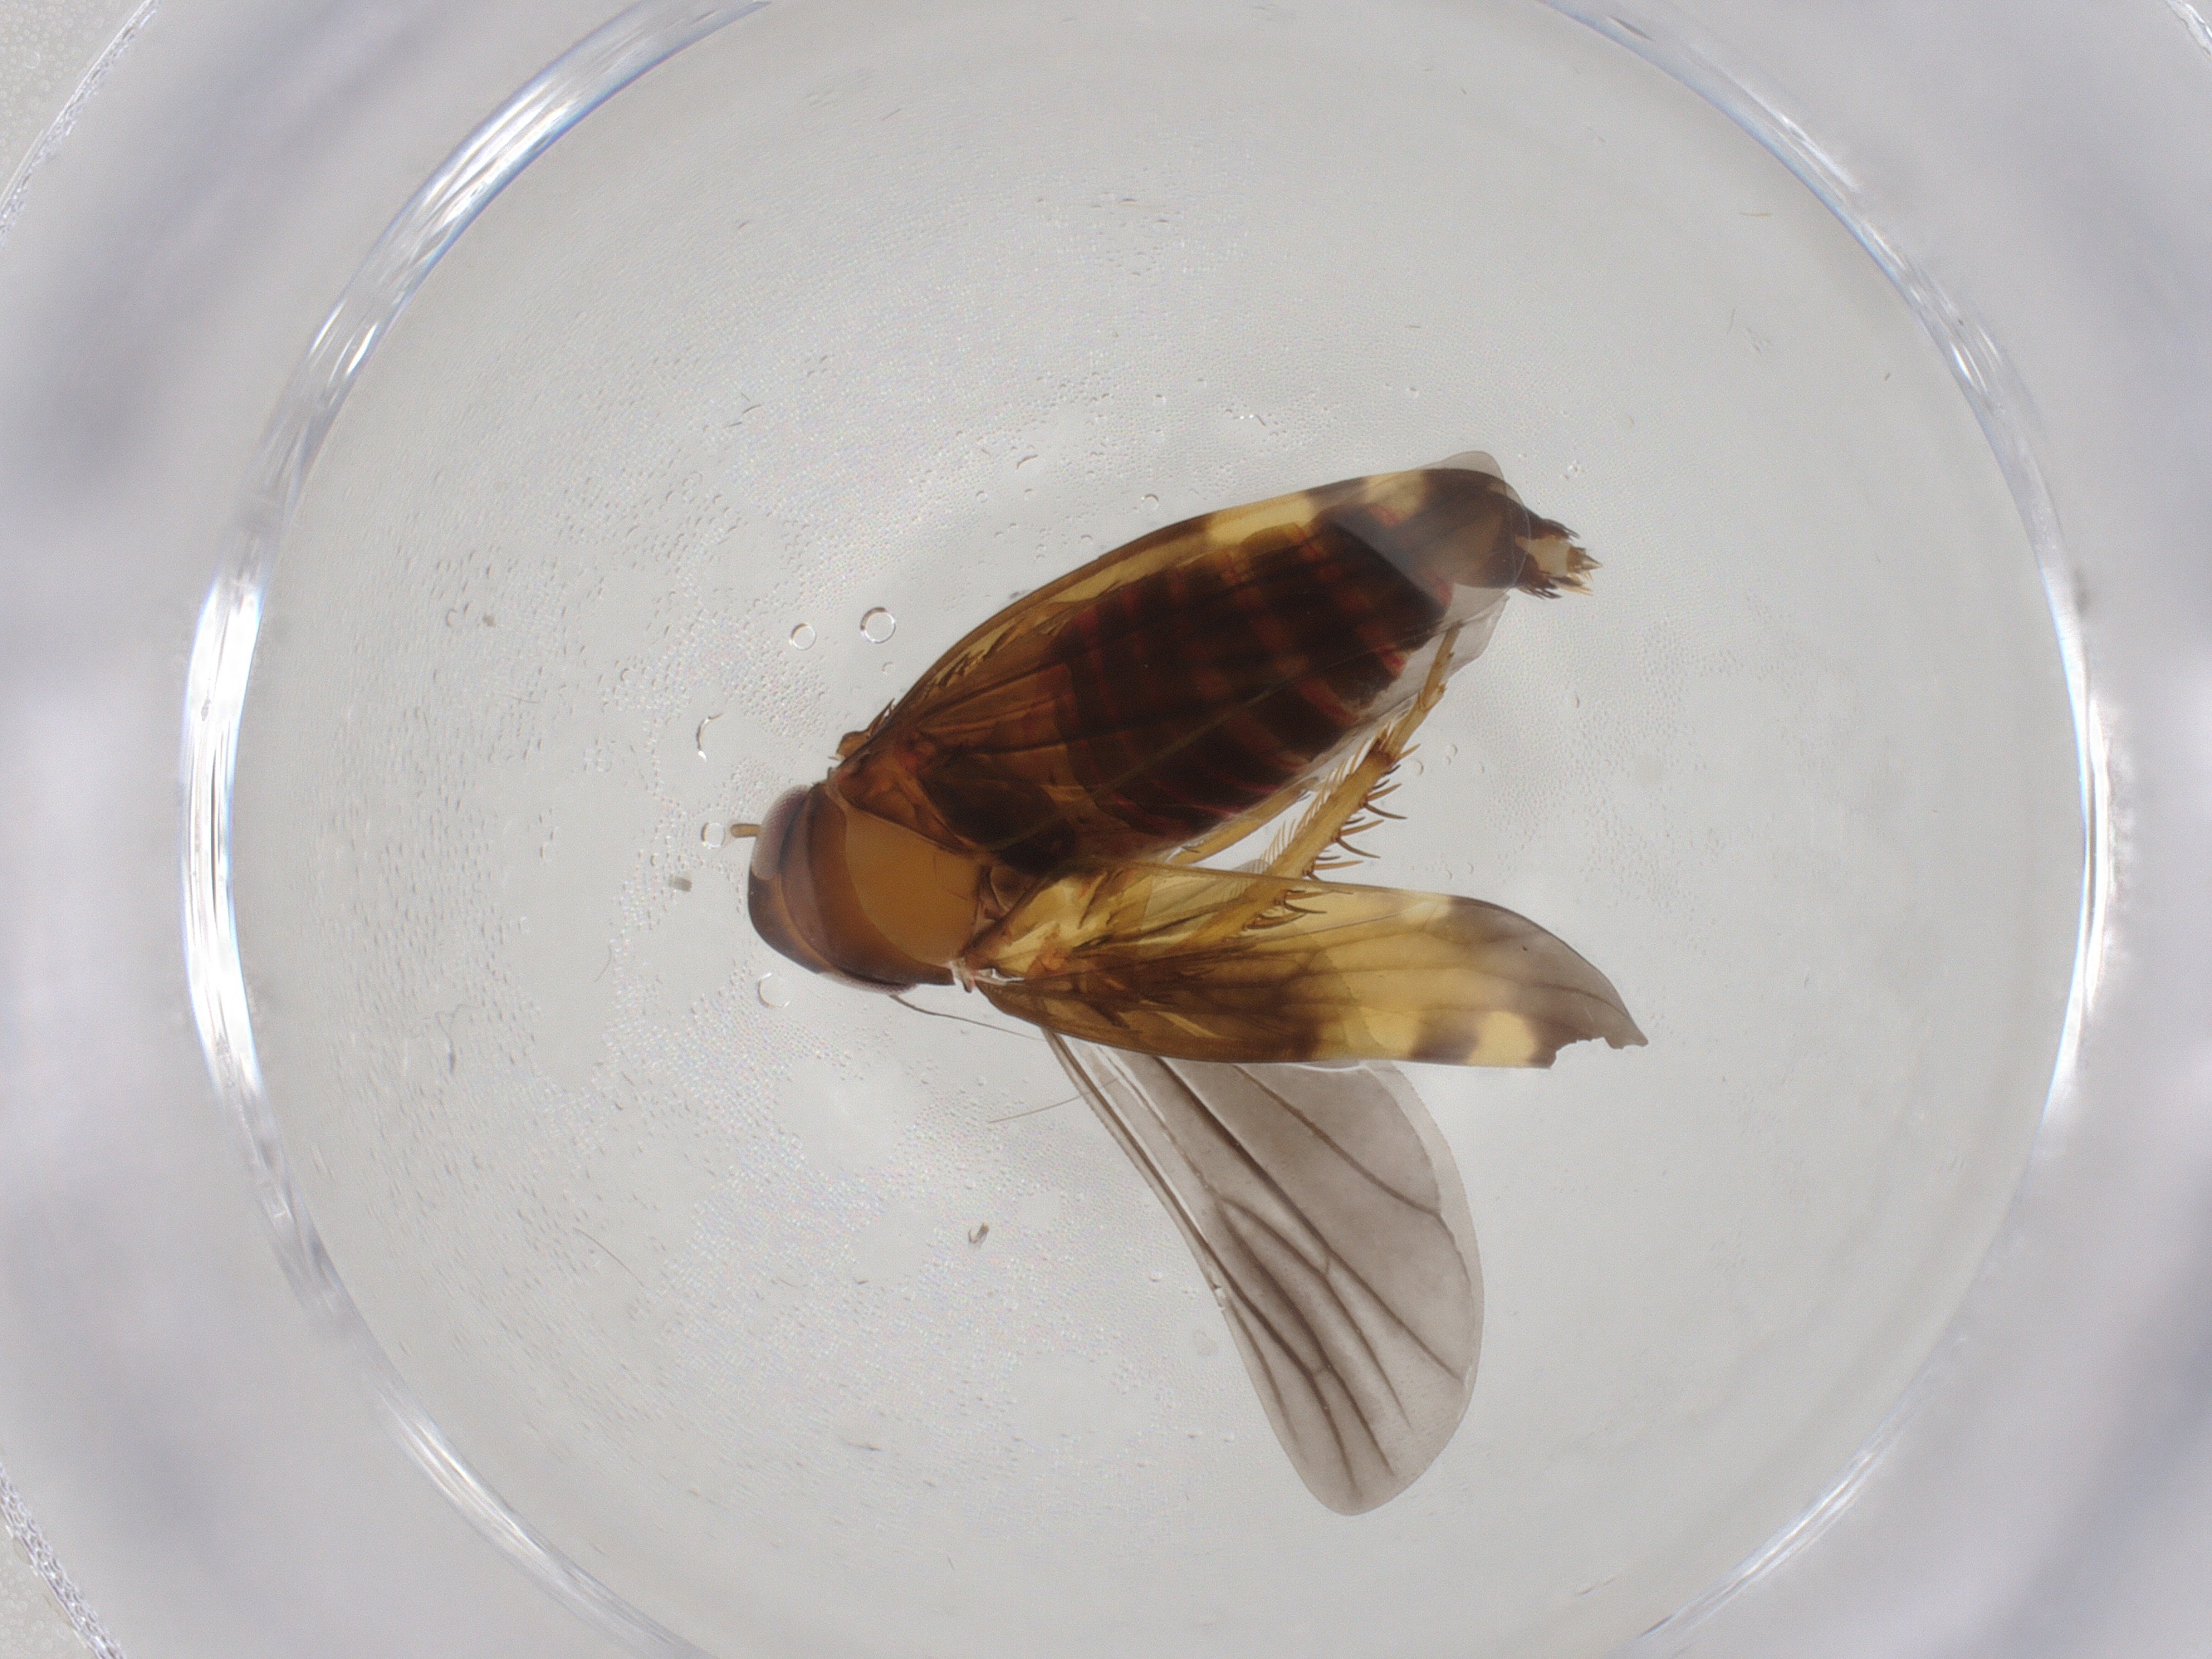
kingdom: Animalia
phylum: Arthropoda
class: Insecta
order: Hemiptera
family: Cicadellidae
